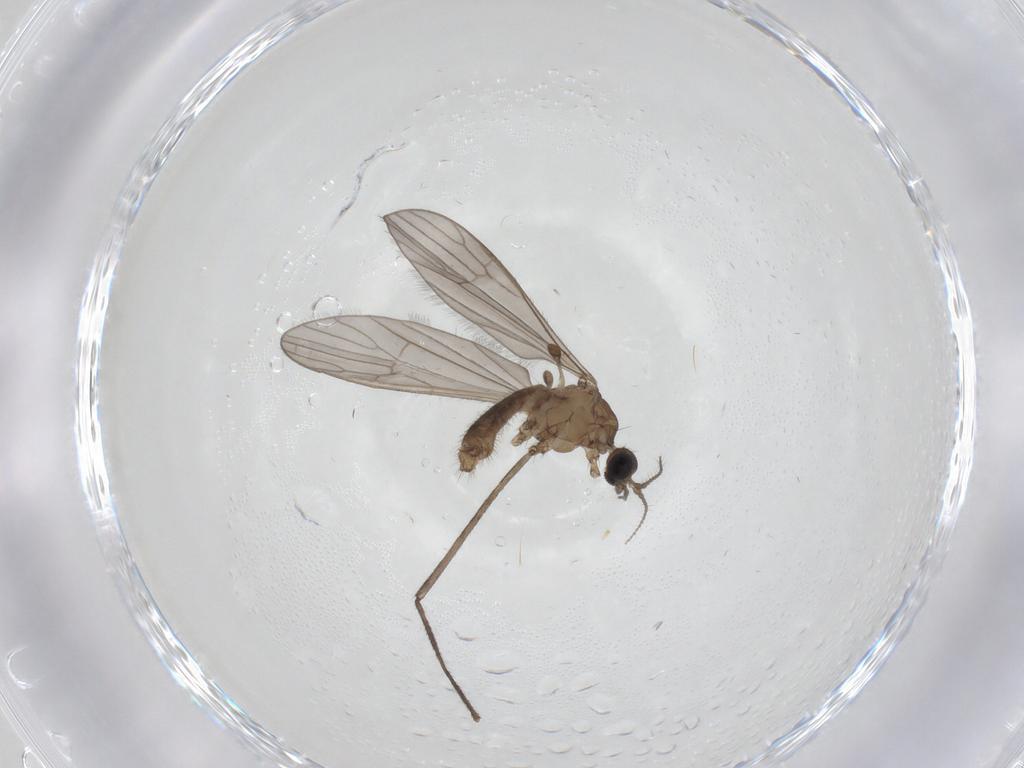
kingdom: Animalia
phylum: Arthropoda
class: Insecta
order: Diptera
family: Limoniidae
